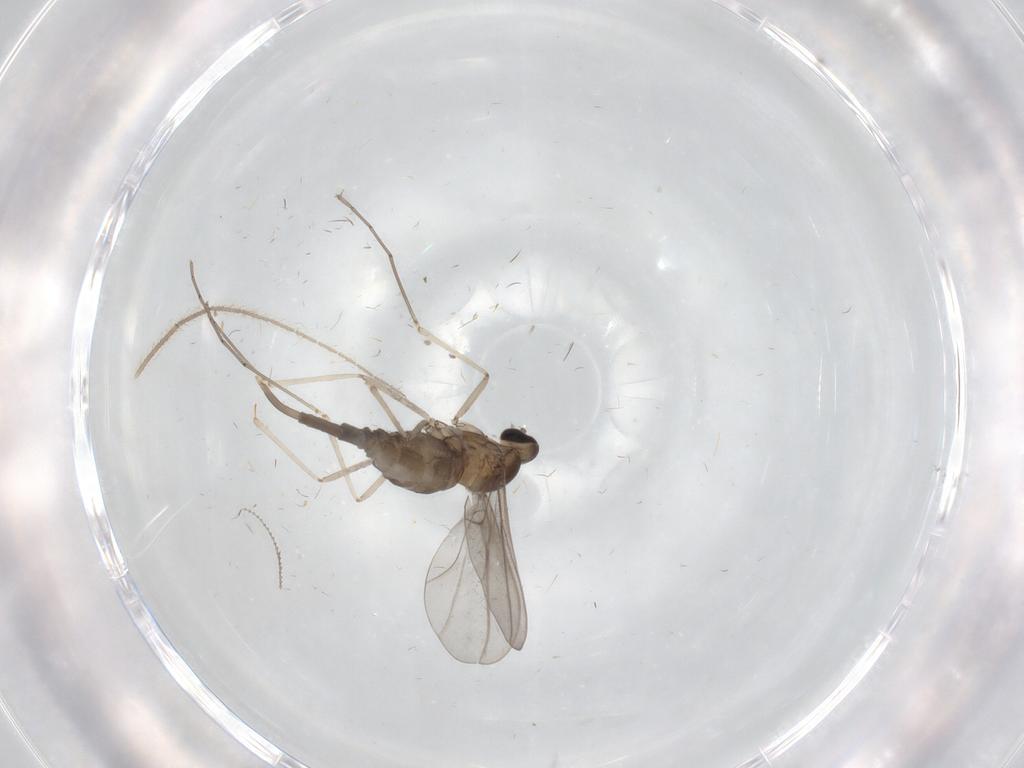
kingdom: Animalia
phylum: Arthropoda
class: Insecta
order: Diptera
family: Cecidomyiidae
